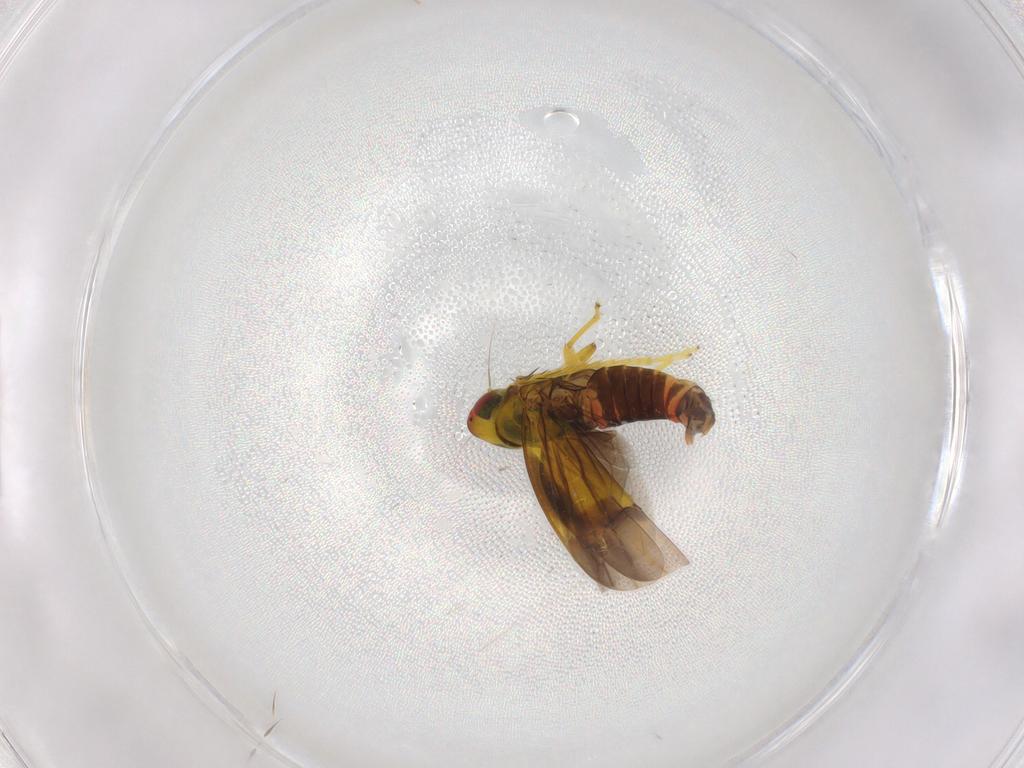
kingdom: Animalia
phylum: Arthropoda
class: Insecta
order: Hemiptera
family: Cicadellidae
